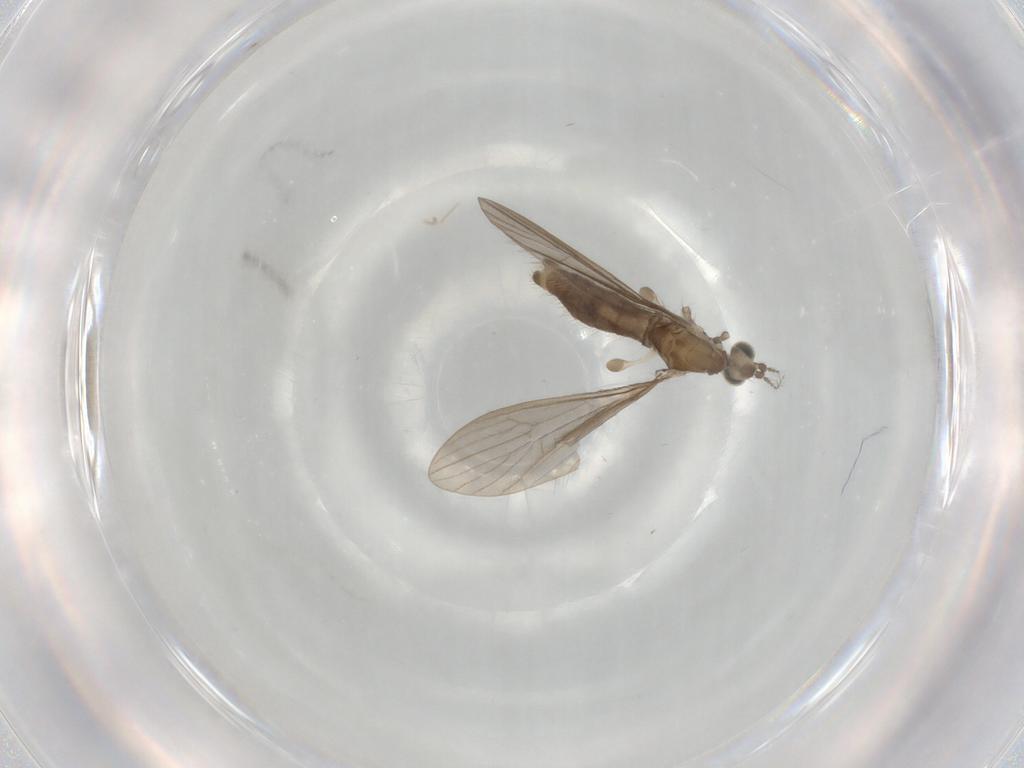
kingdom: Animalia
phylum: Arthropoda
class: Insecta
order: Diptera
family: Limoniidae
